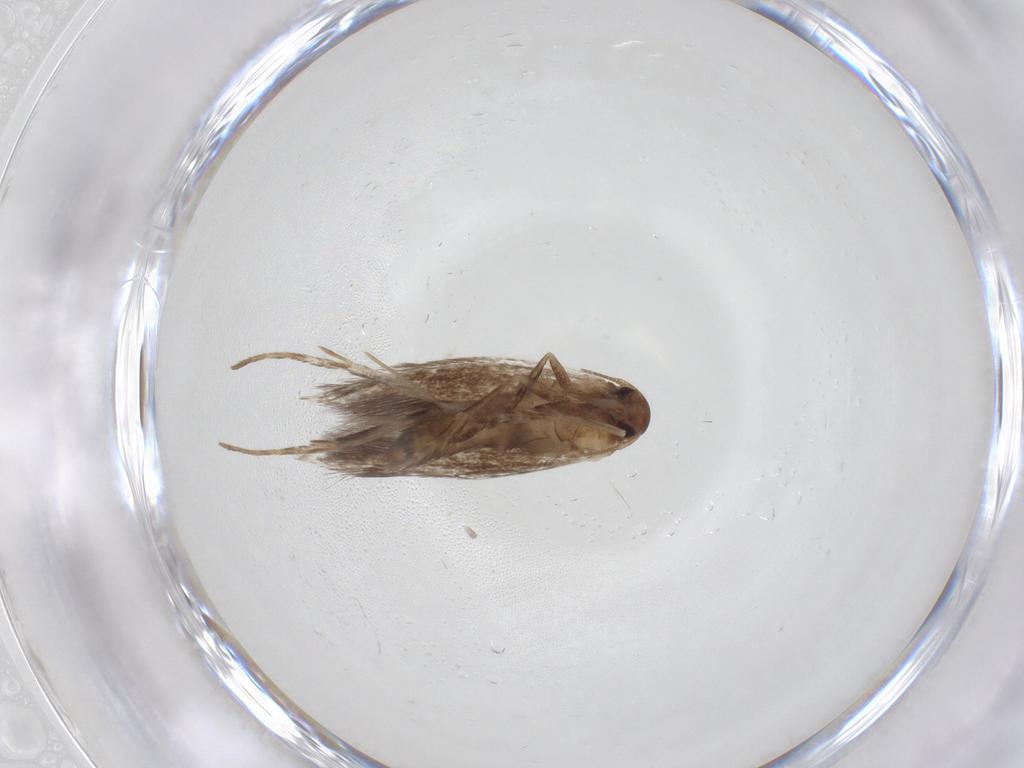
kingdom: Animalia
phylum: Arthropoda
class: Insecta
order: Lepidoptera
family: Elachistidae
